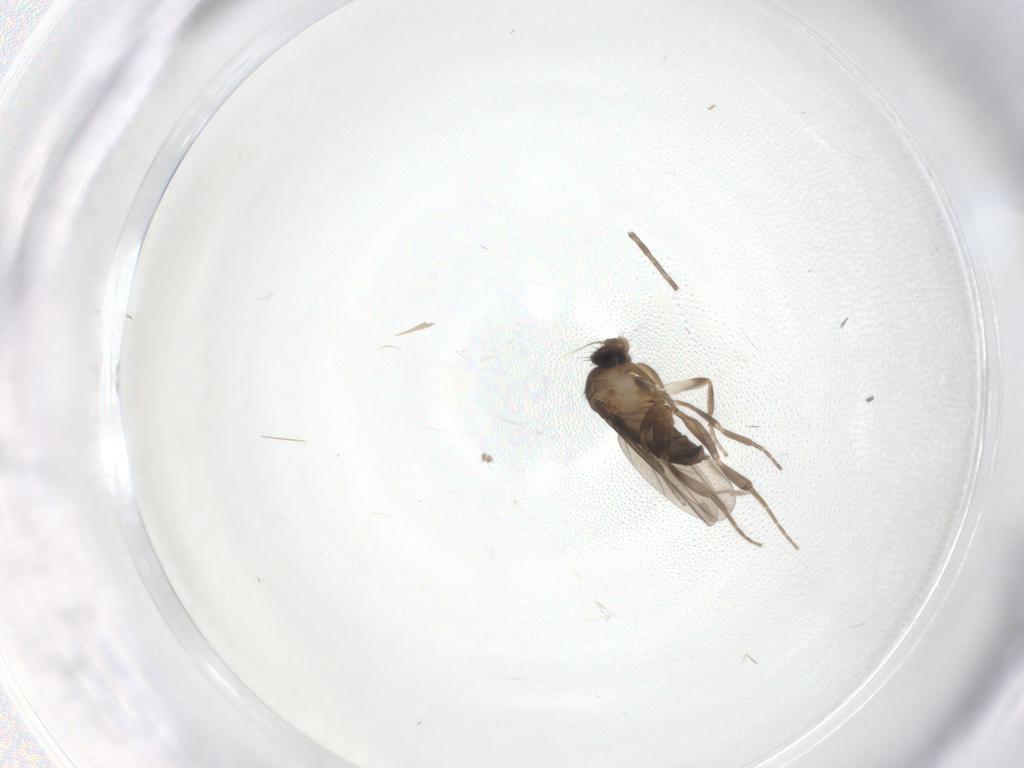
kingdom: Animalia
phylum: Arthropoda
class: Insecta
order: Diptera
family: Cecidomyiidae
